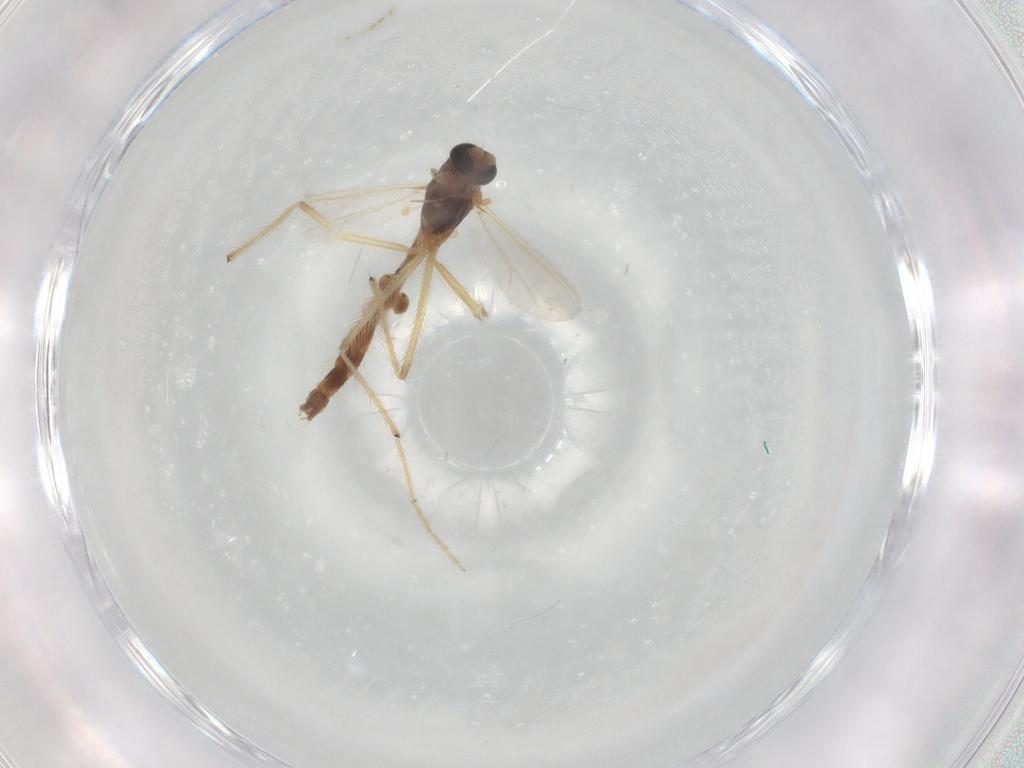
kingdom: Animalia
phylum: Arthropoda
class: Insecta
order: Diptera
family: Chironomidae
